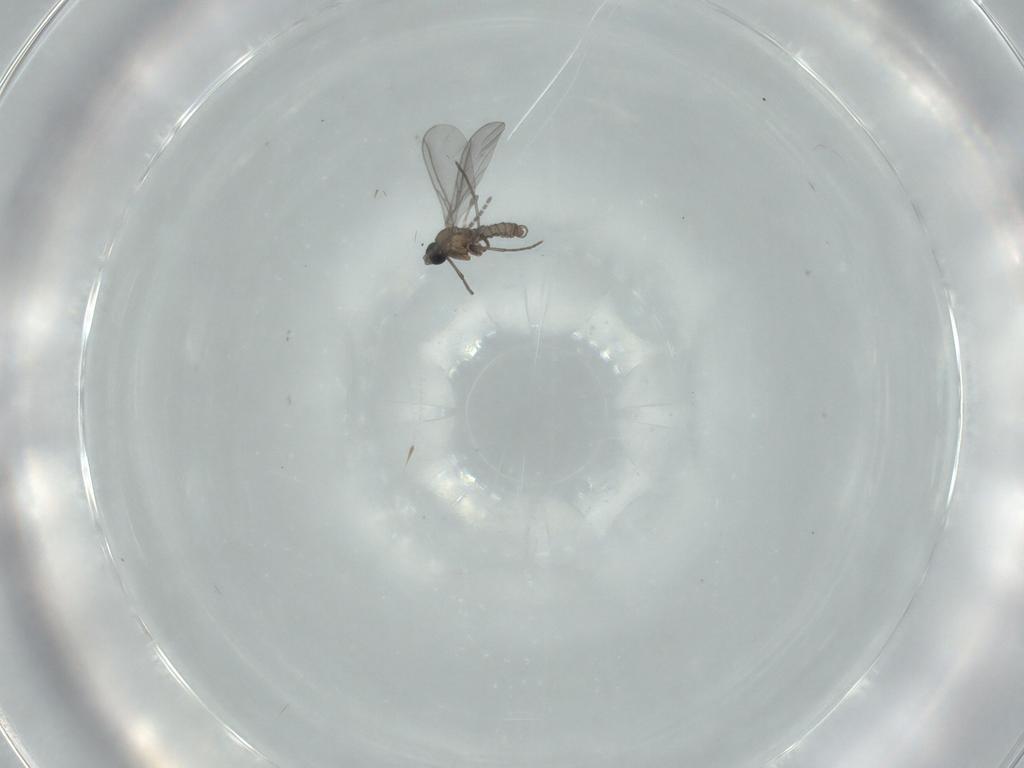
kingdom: Animalia
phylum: Arthropoda
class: Insecta
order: Diptera
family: Sciaridae
